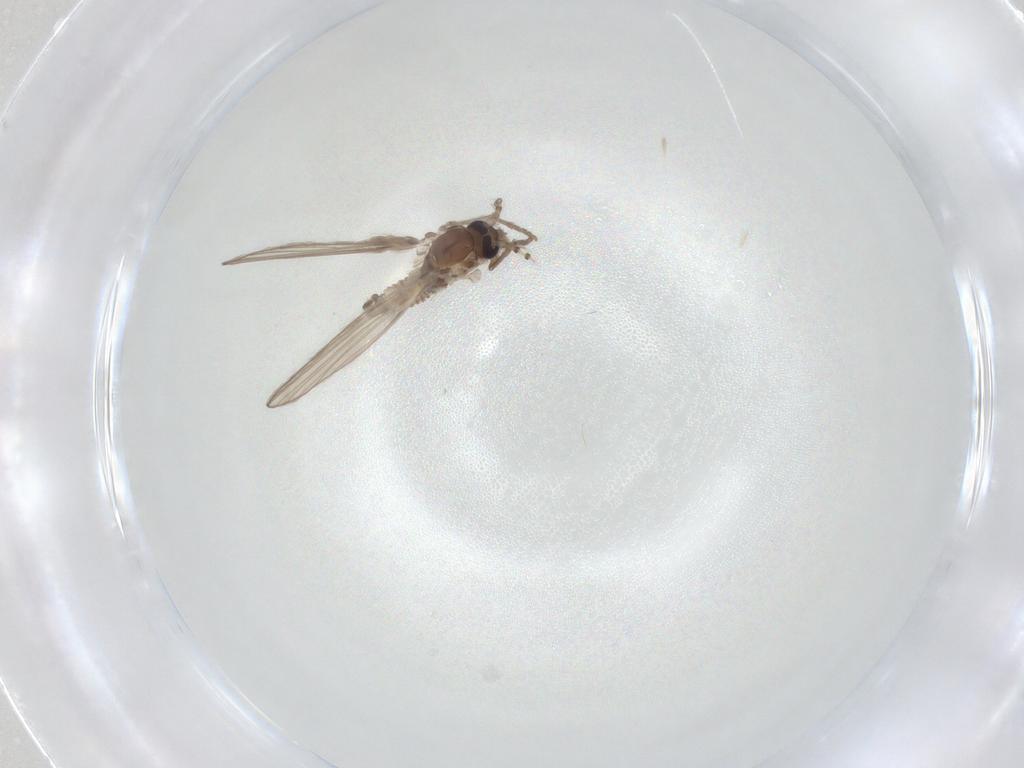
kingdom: Animalia
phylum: Arthropoda
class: Insecta
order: Diptera
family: Psychodidae
